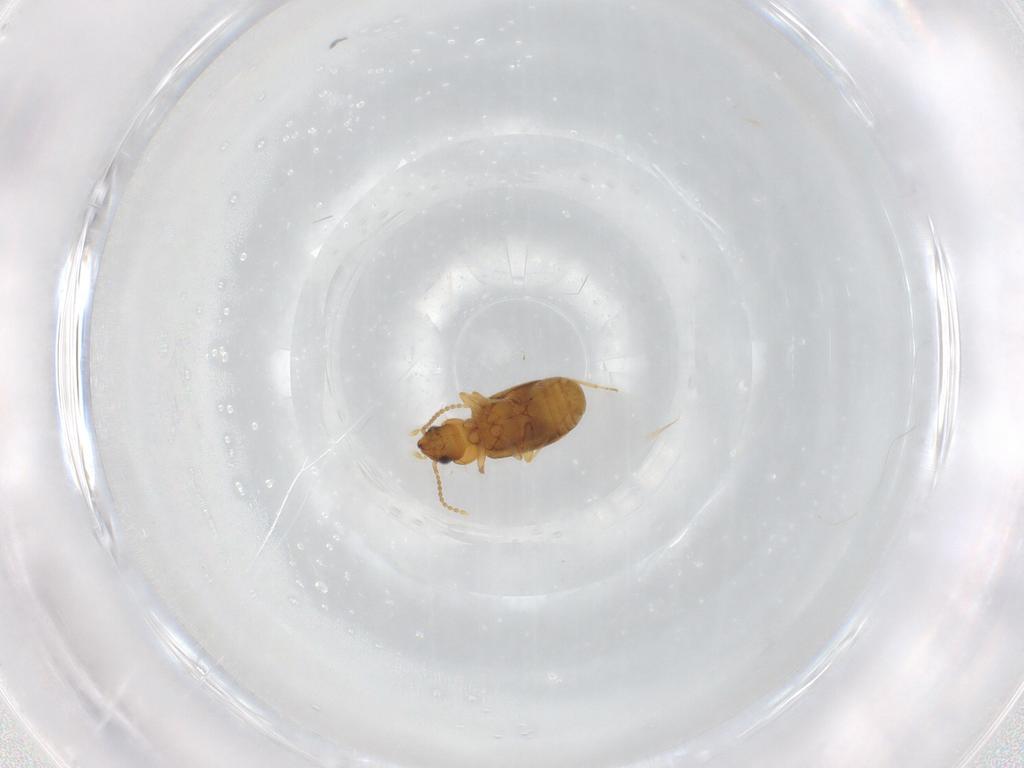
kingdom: Animalia
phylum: Arthropoda
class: Insecta
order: Coleoptera
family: Carabidae
